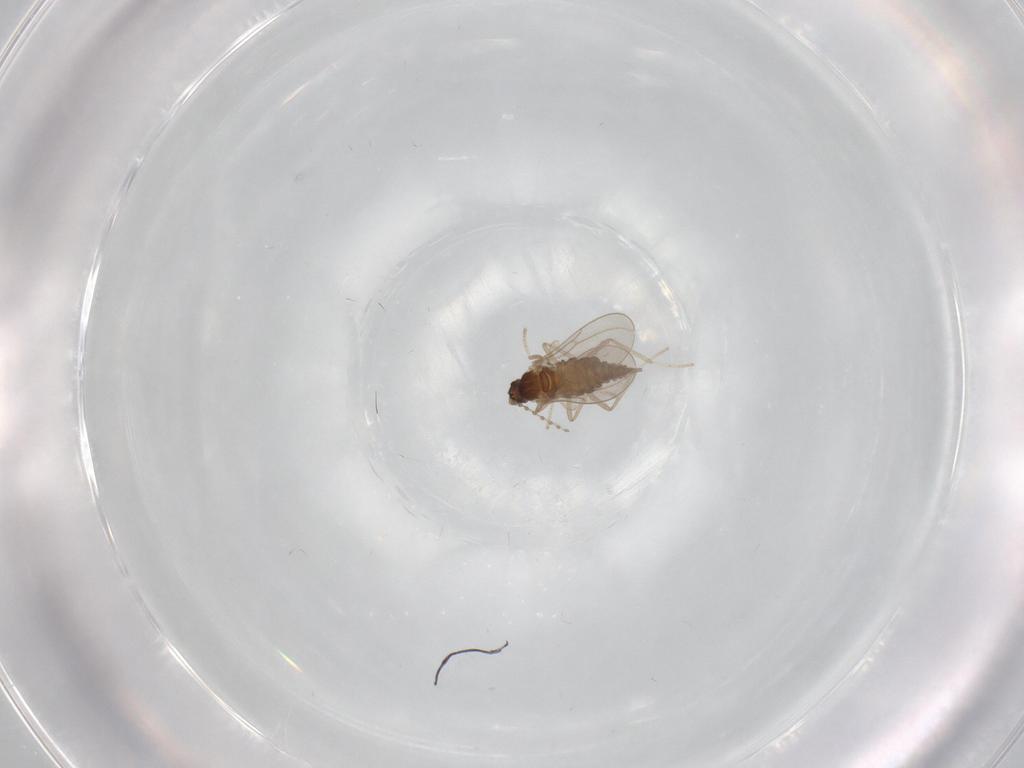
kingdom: Animalia
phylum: Arthropoda
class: Insecta
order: Diptera
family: Cecidomyiidae
